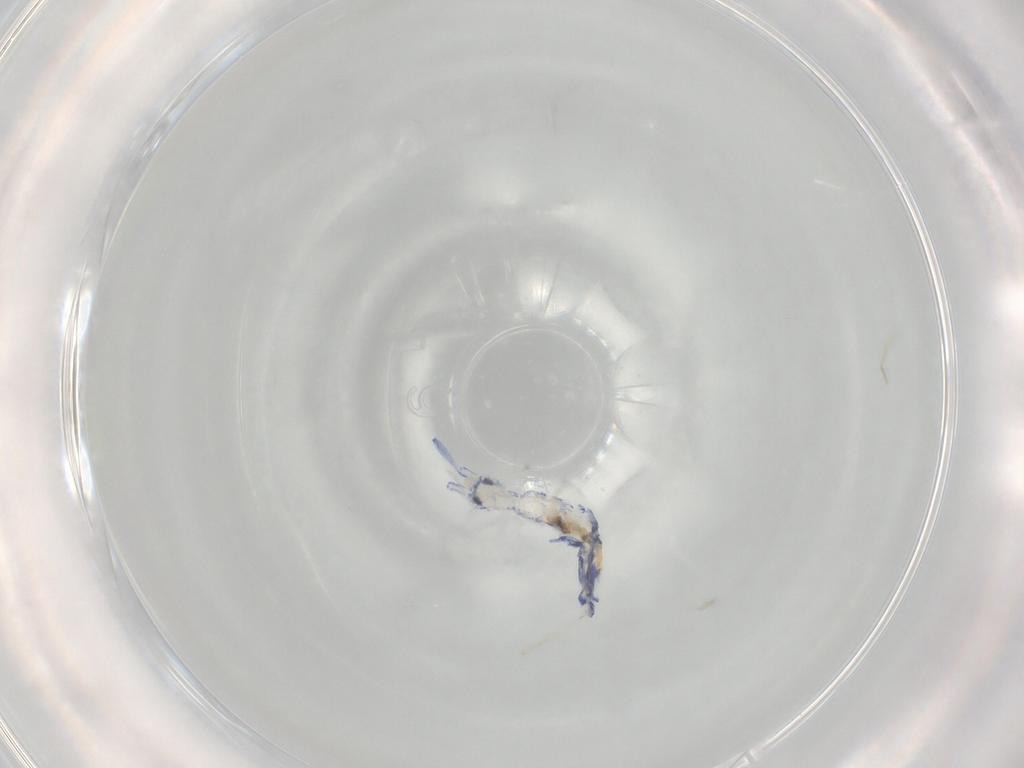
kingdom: Animalia
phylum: Arthropoda
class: Collembola
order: Entomobryomorpha
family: Entomobryidae
